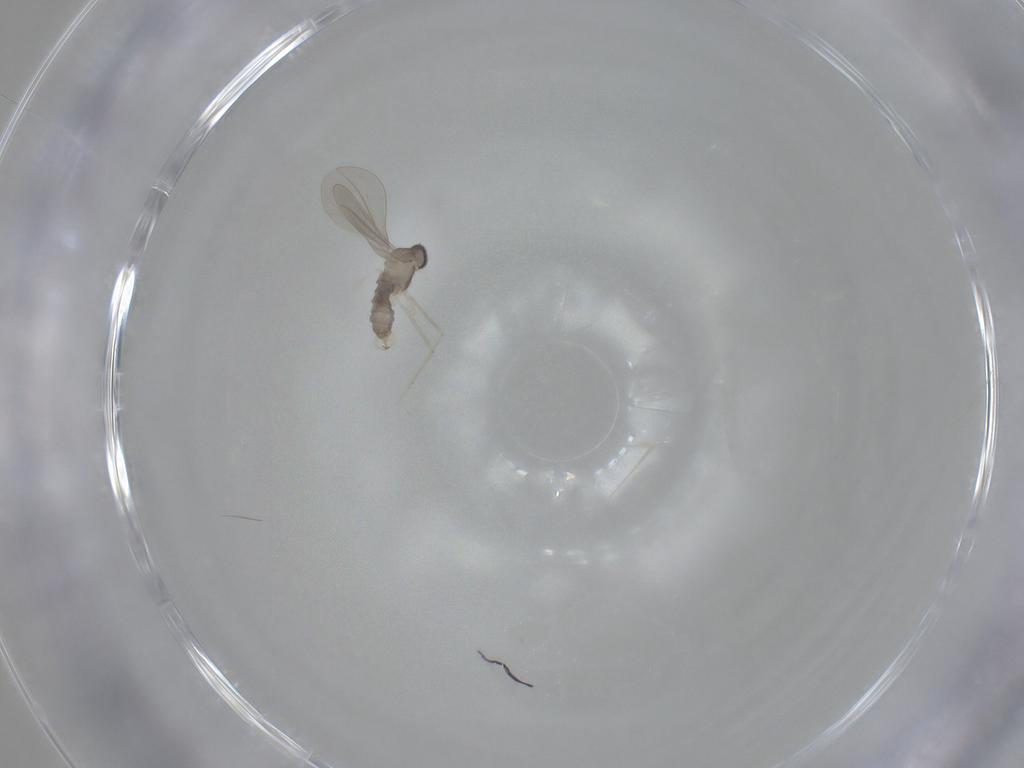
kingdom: Animalia
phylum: Arthropoda
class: Insecta
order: Diptera
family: Cecidomyiidae
